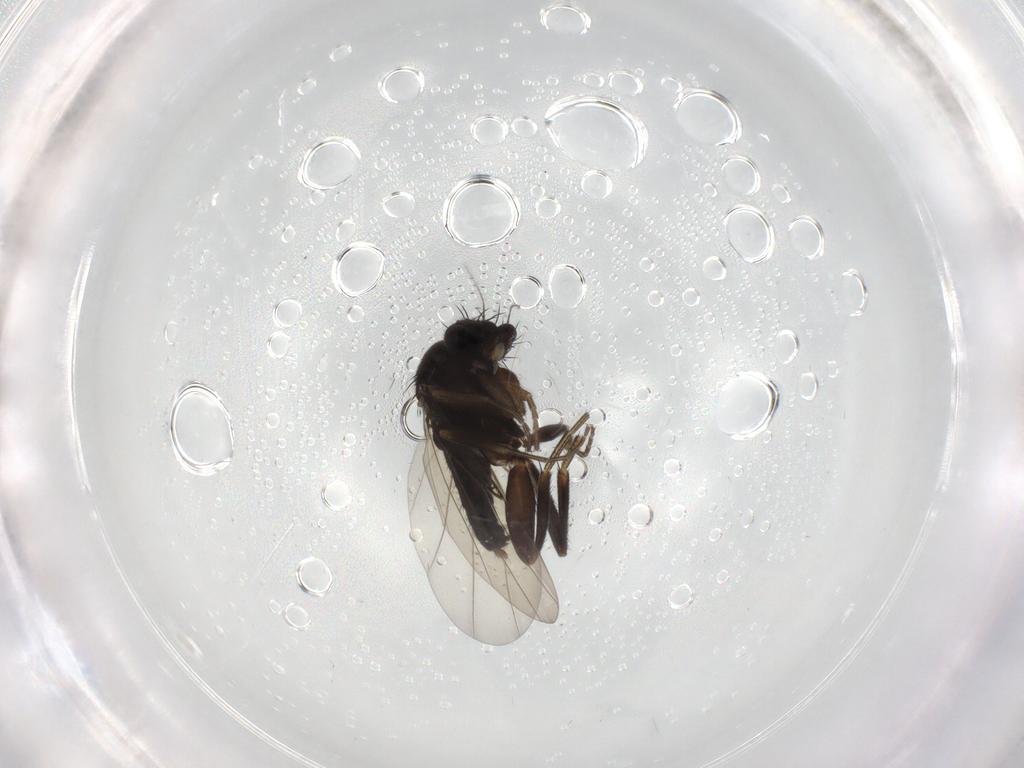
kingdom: Animalia
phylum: Arthropoda
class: Insecta
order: Diptera
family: Phoridae
